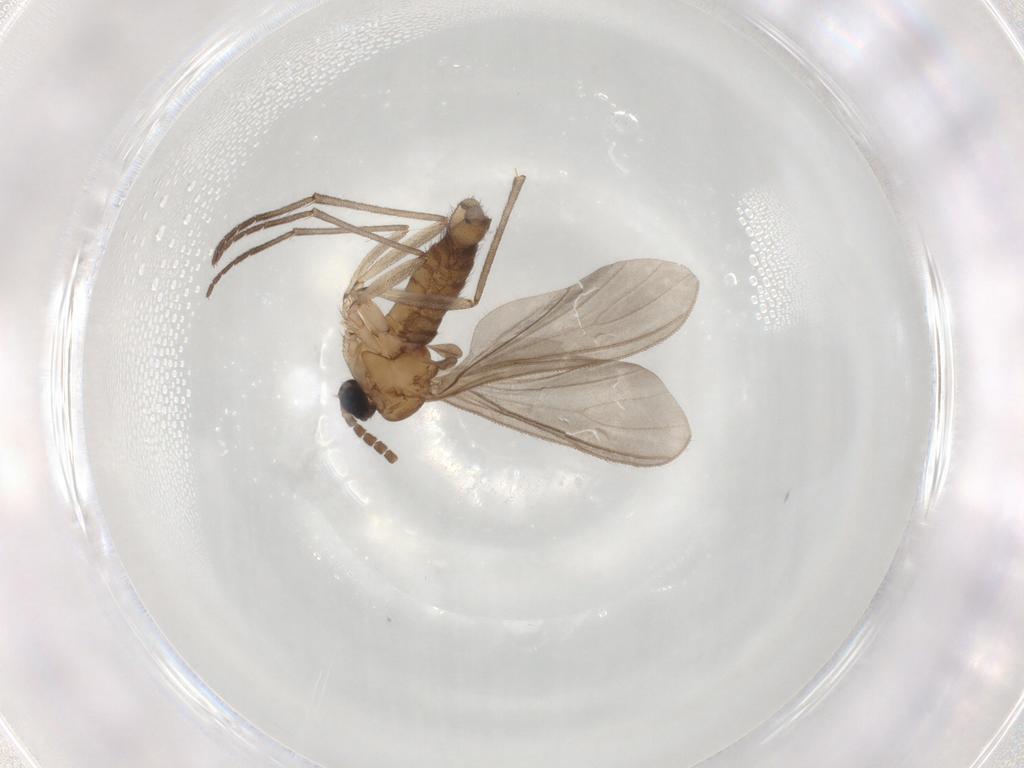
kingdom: Animalia
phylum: Arthropoda
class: Insecta
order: Diptera
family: Sciaridae
